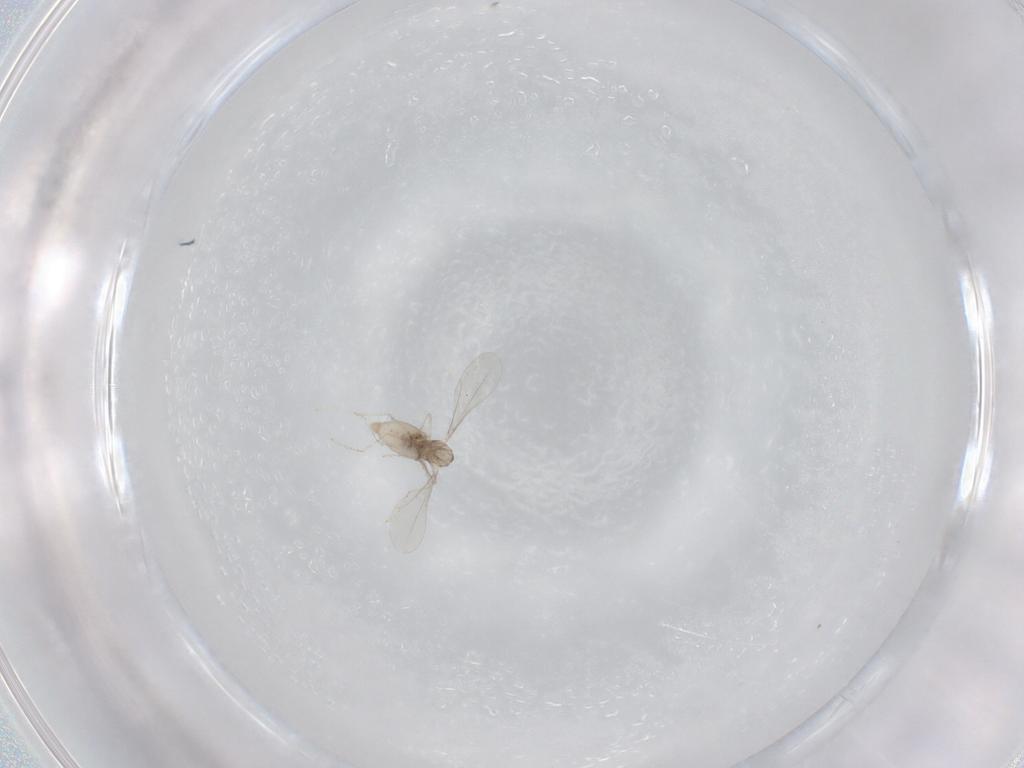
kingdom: Animalia
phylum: Arthropoda
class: Insecta
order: Diptera
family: Cecidomyiidae
